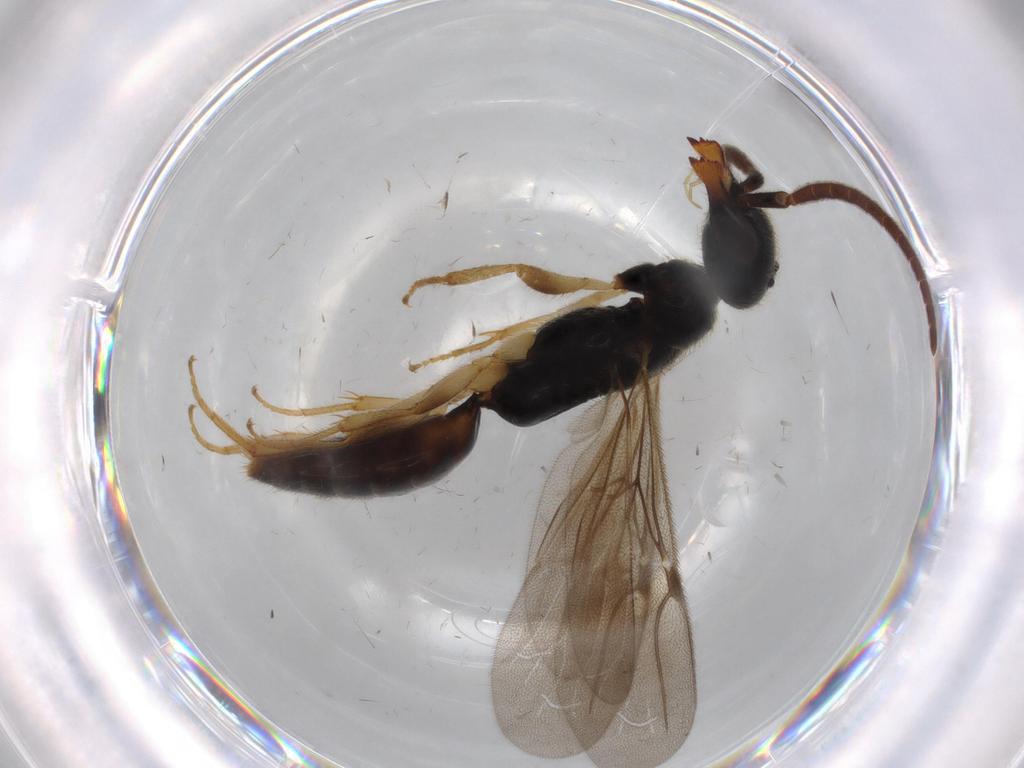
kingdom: Animalia
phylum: Arthropoda
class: Insecta
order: Hymenoptera
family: Bethylidae
